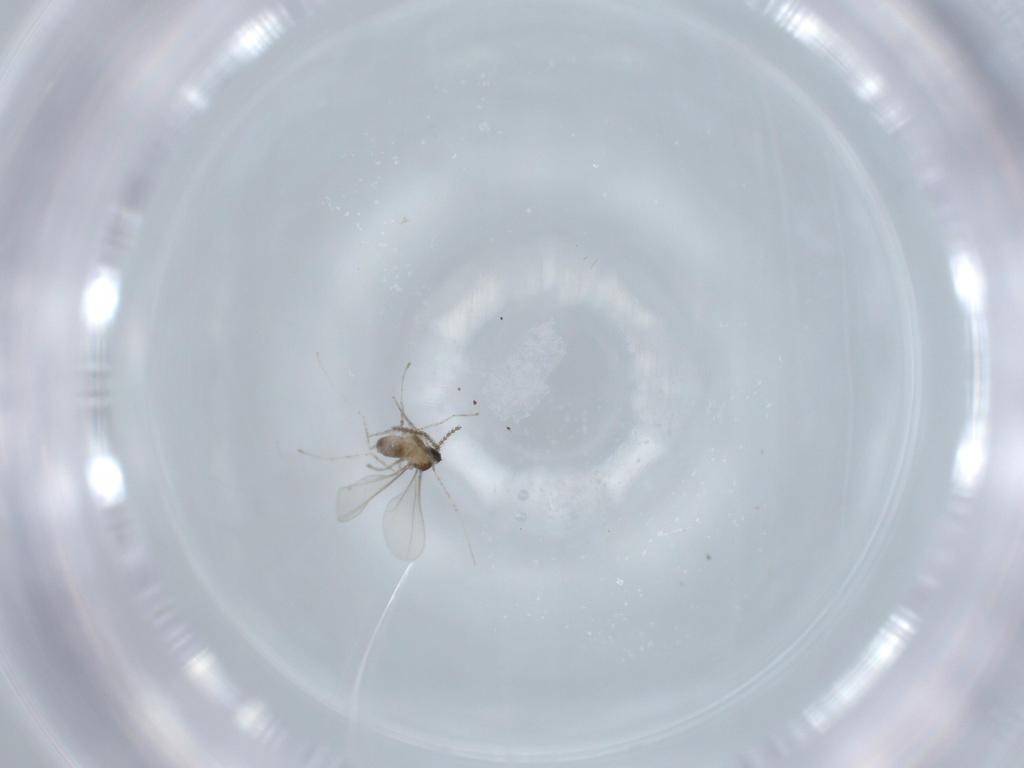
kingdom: Animalia
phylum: Arthropoda
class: Insecta
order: Diptera
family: Cecidomyiidae
